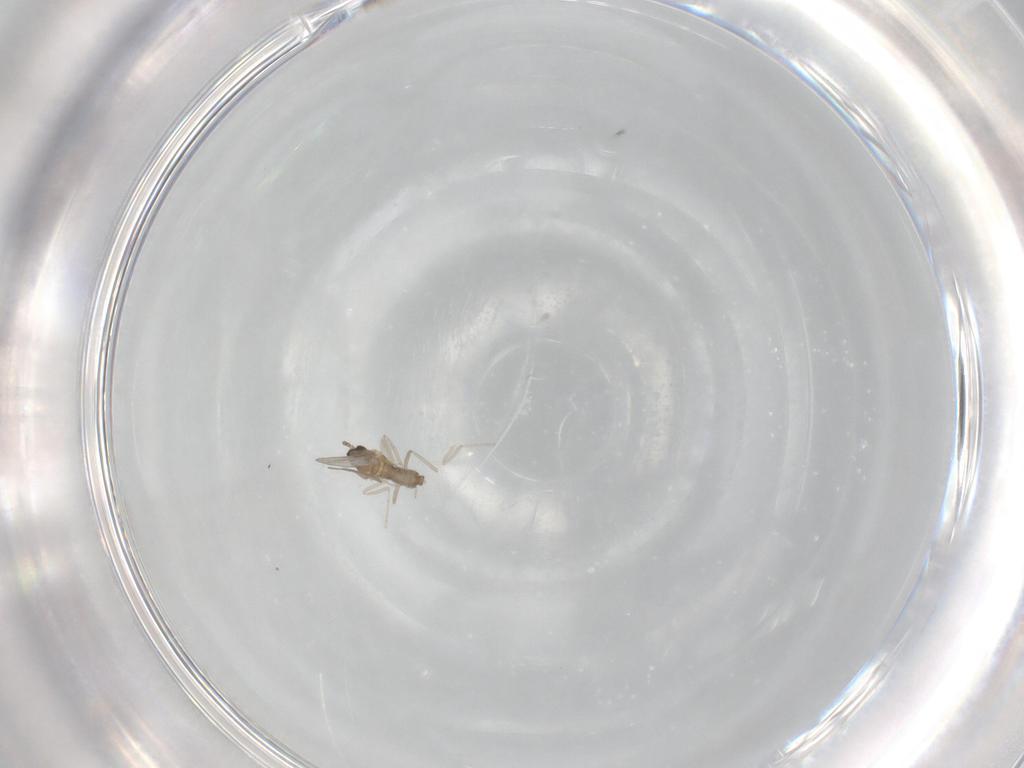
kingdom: Animalia
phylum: Arthropoda
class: Insecta
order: Diptera
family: Cecidomyiidae
